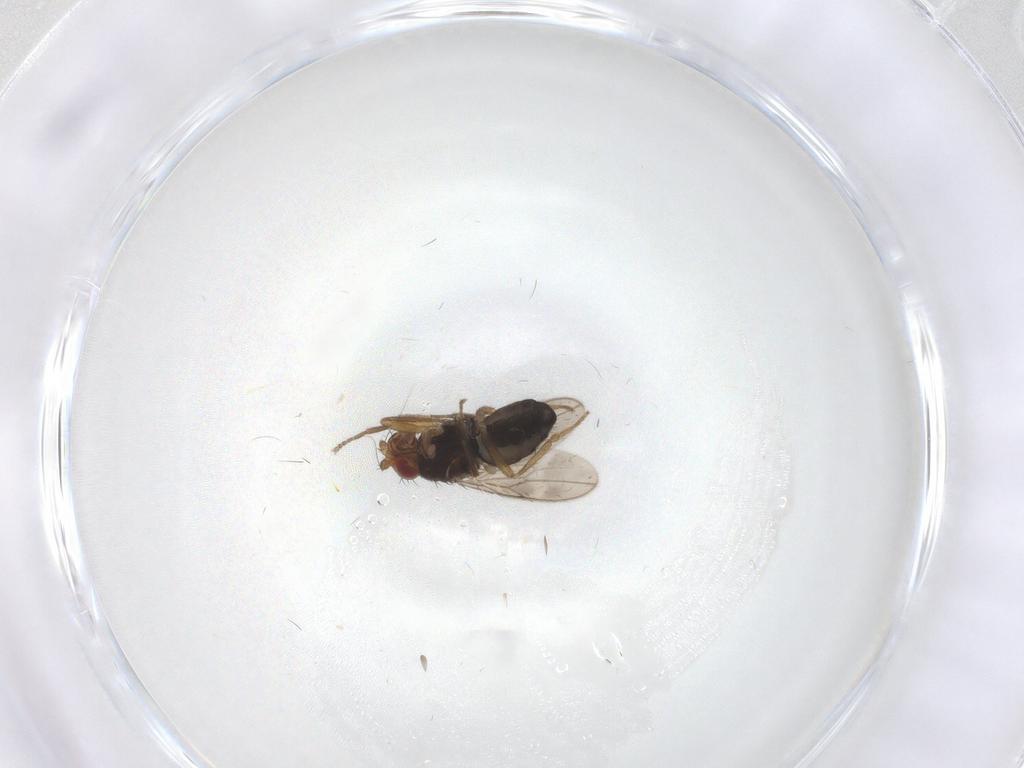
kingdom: Animalia
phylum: Arthropoda
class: Insecta
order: Diptera
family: Sphaeroceridae
